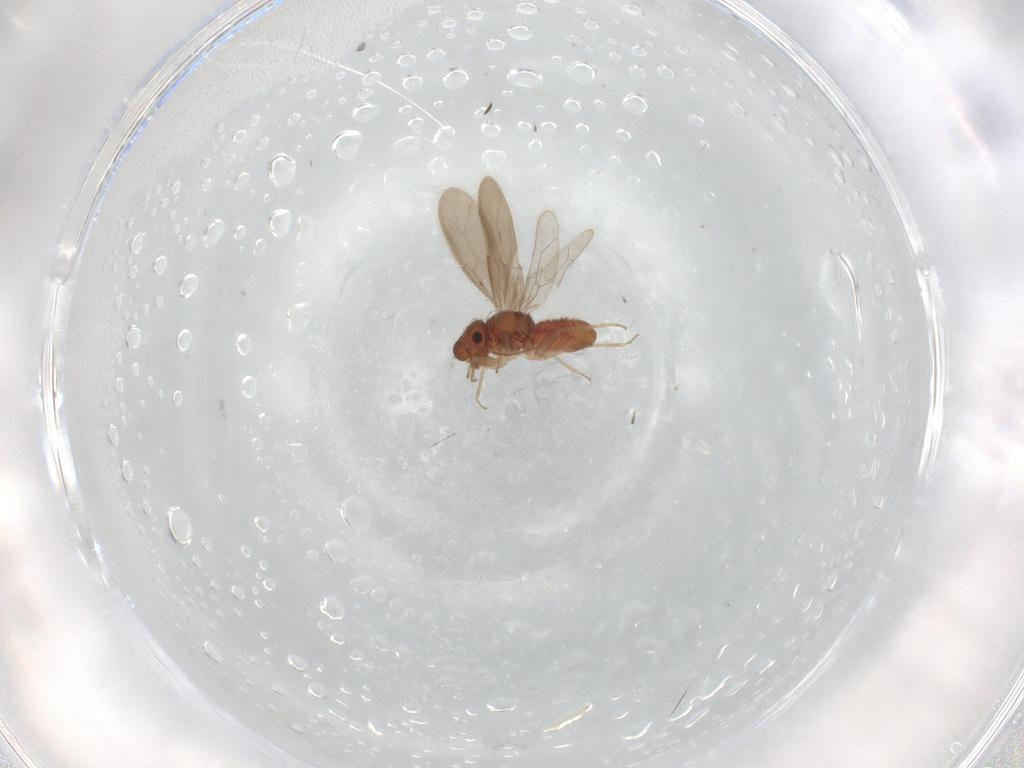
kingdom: Animalia
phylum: Arthropoda
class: Insecta
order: Psocodea
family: Archipsocidae
